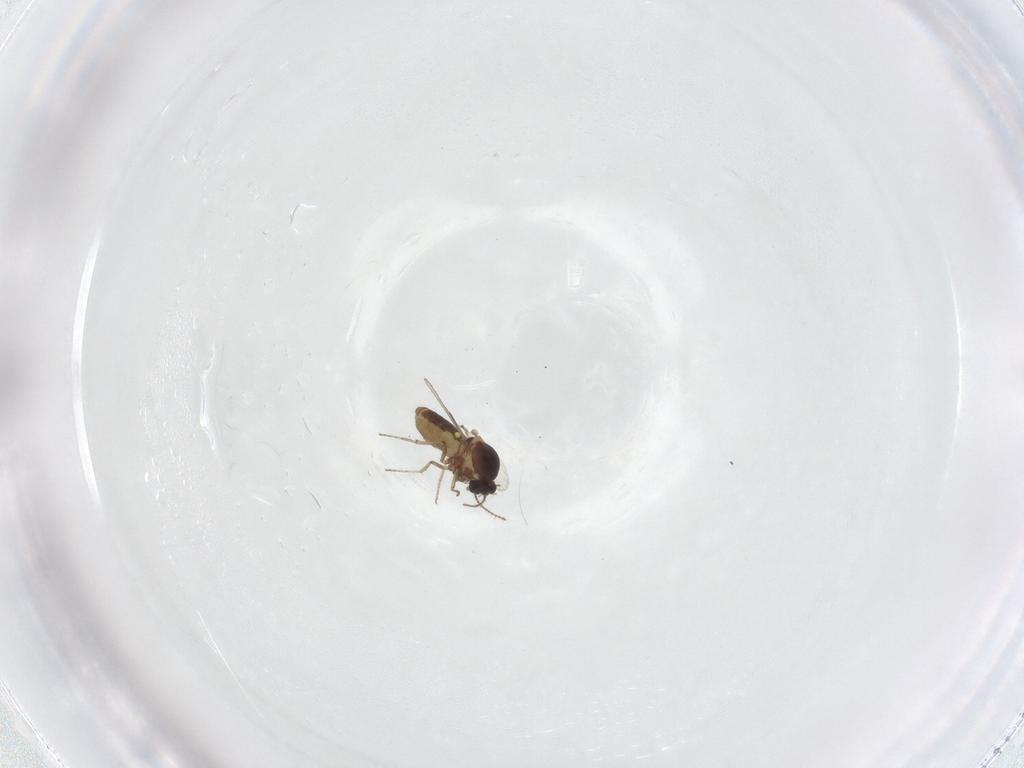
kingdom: Animalia
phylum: Arthropoda
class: Insecta
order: Diptera
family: Ceratopogonidae
